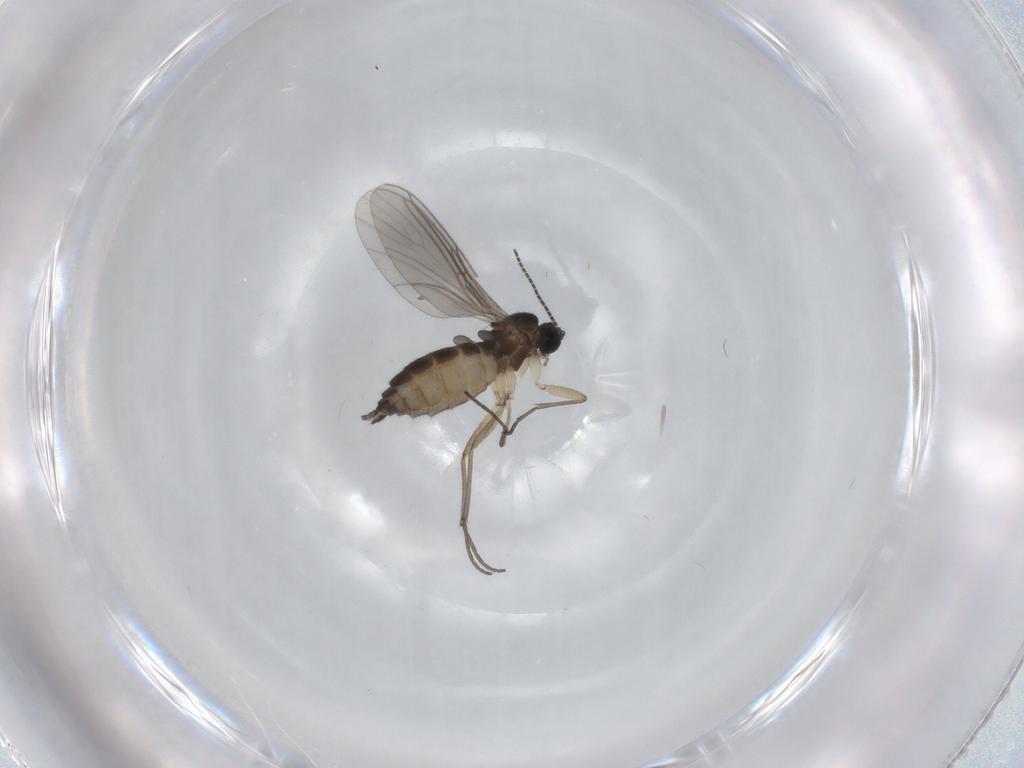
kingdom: Animalia
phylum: Arthropoda
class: Insecta
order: Diptera
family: Sciaridae
